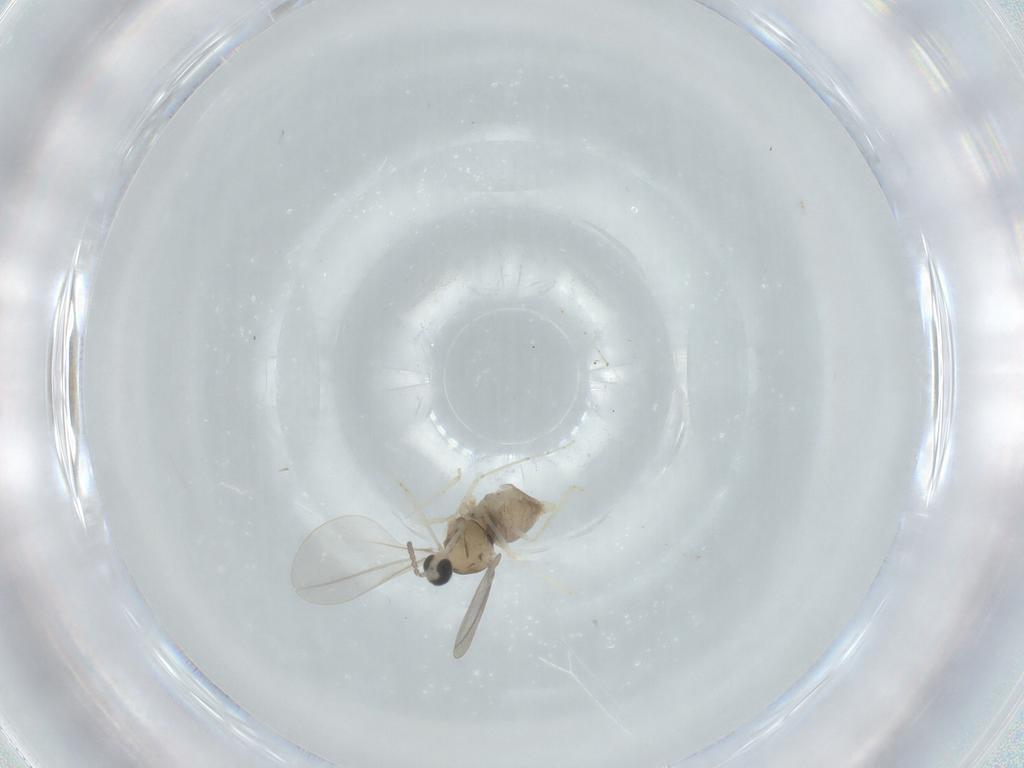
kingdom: Animalia
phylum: Arthropoda
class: Insecta
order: Diptera
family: Cecidomyiidae
